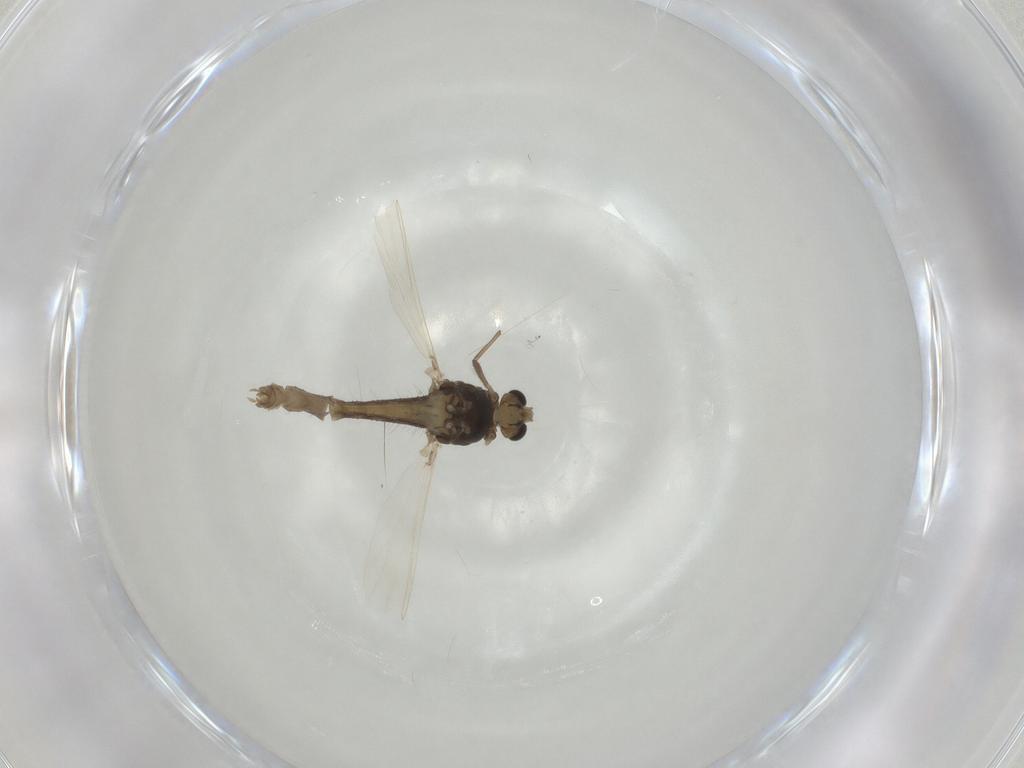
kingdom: Animalia
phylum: Arthropoda
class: Insecta
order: Diptera
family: Chironomidae
